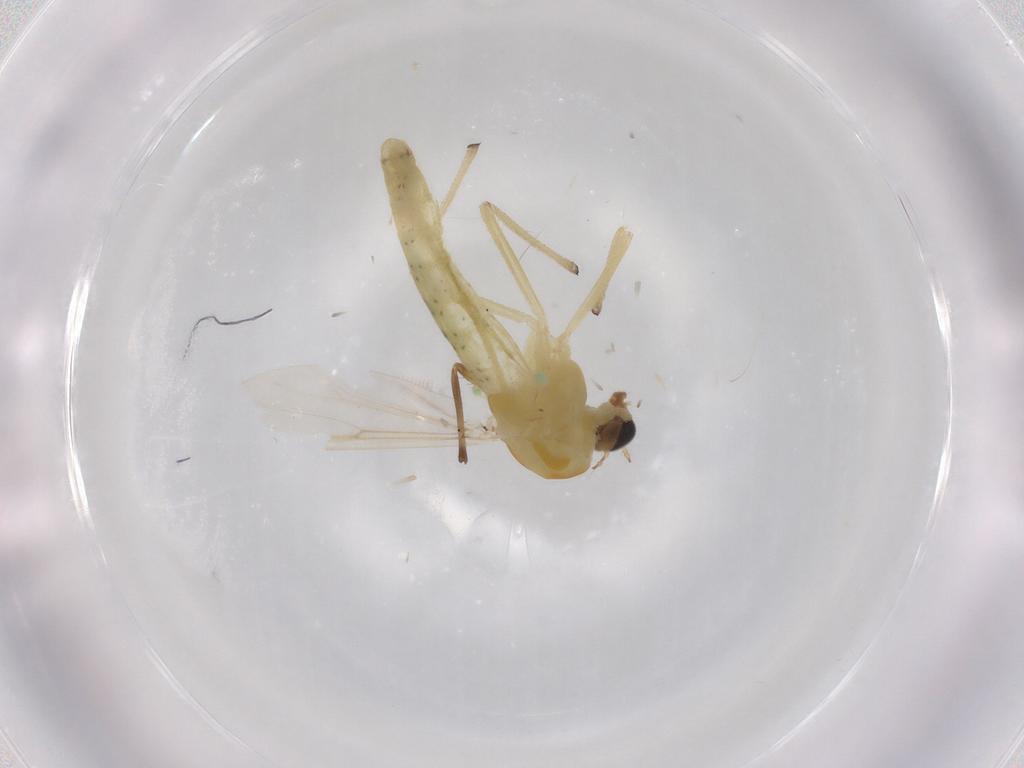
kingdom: Animalia
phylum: Arthropoda
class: Insecta
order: Diptera
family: Sciaridae
